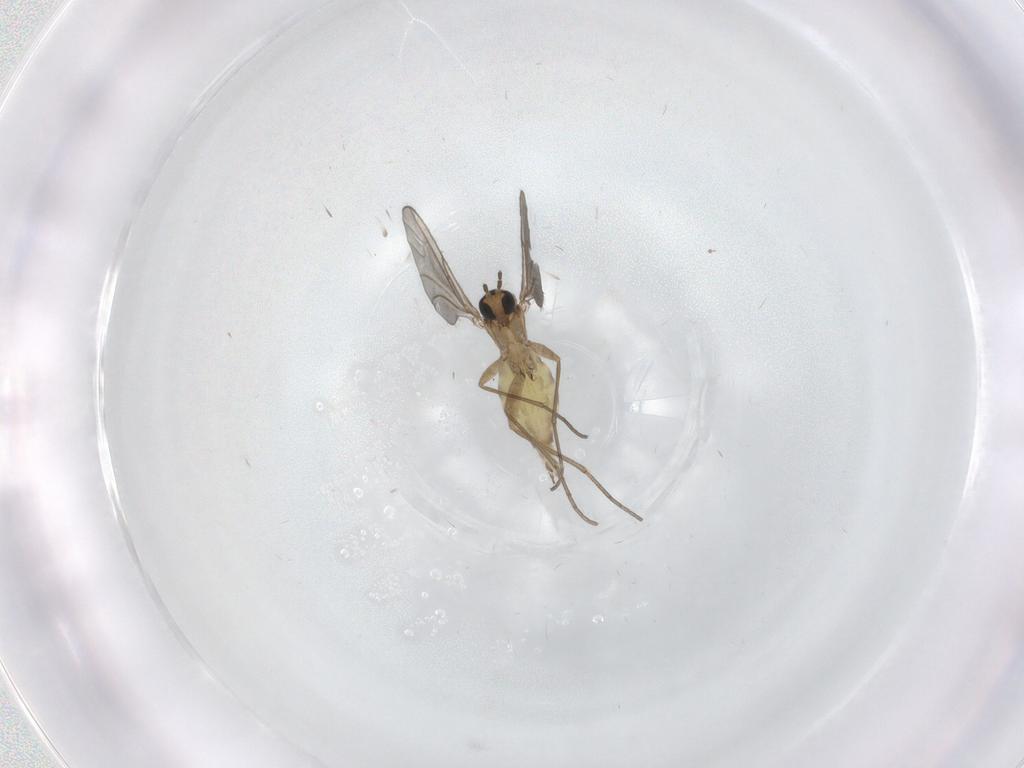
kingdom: Animalia
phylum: Arthropoda
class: Insecta
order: Diptera
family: Sciaridae
